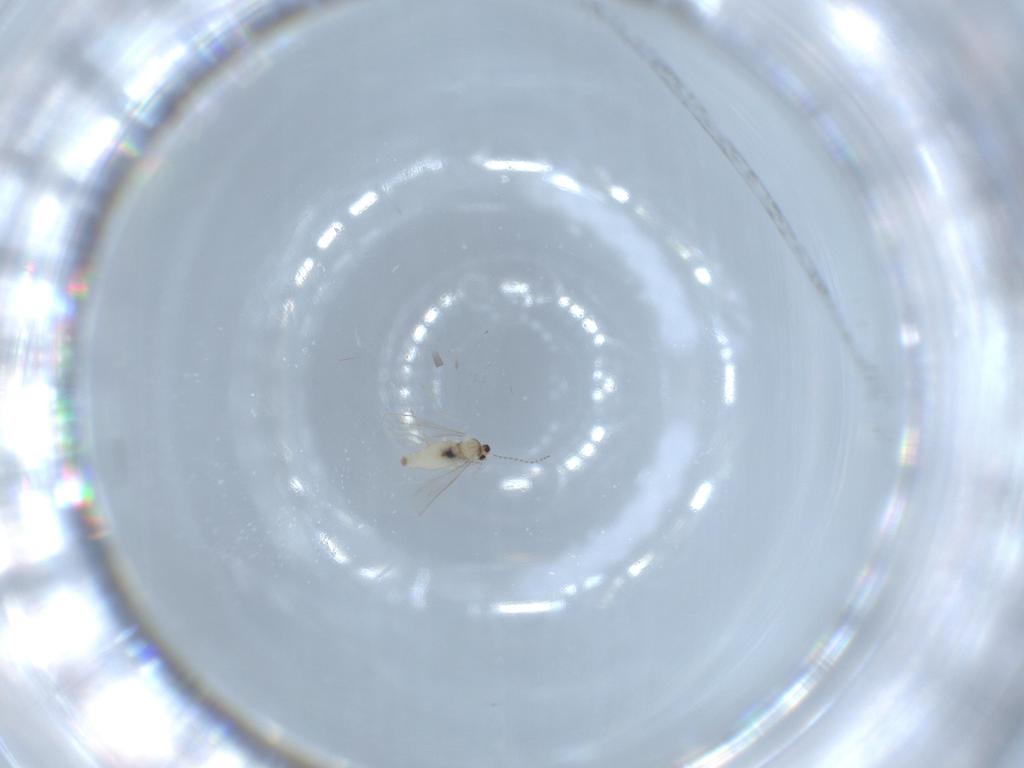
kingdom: Animalia
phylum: Arthropoda
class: Insecta
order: Diptera
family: Cecidomyiidae
